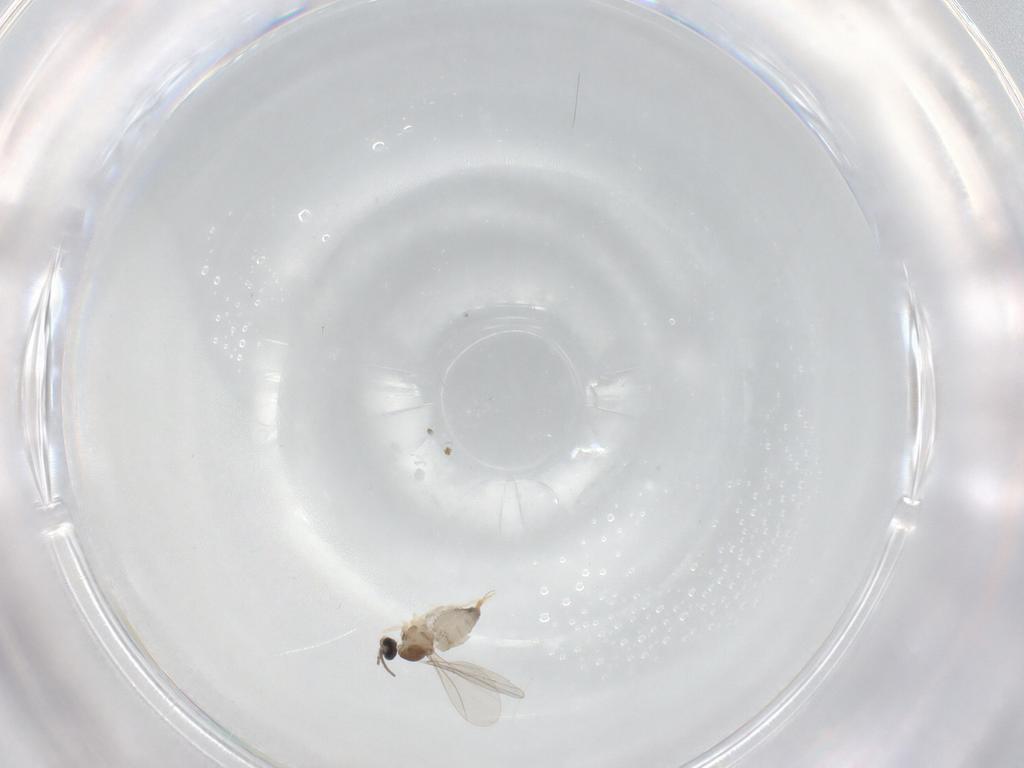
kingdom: Animalia
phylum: Arthropoda
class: Insecta
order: Diptera
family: Cecidomyiidae
